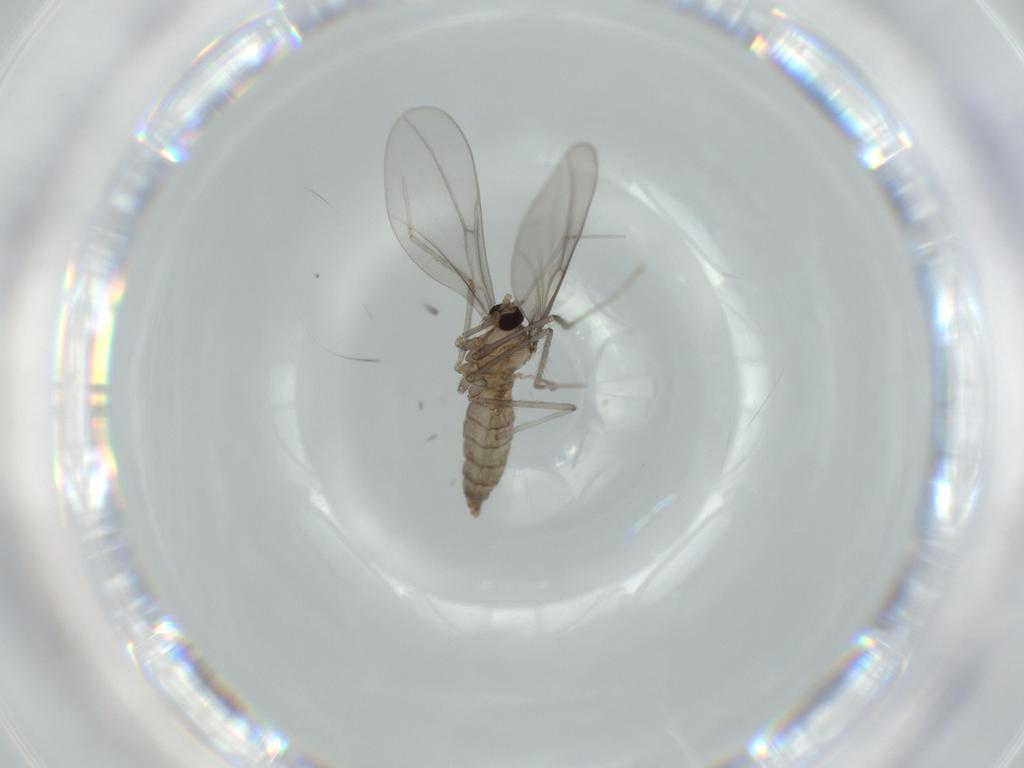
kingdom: Animalia
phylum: Arthropoda
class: Insecta
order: Diptera
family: Cecidomyiidae
